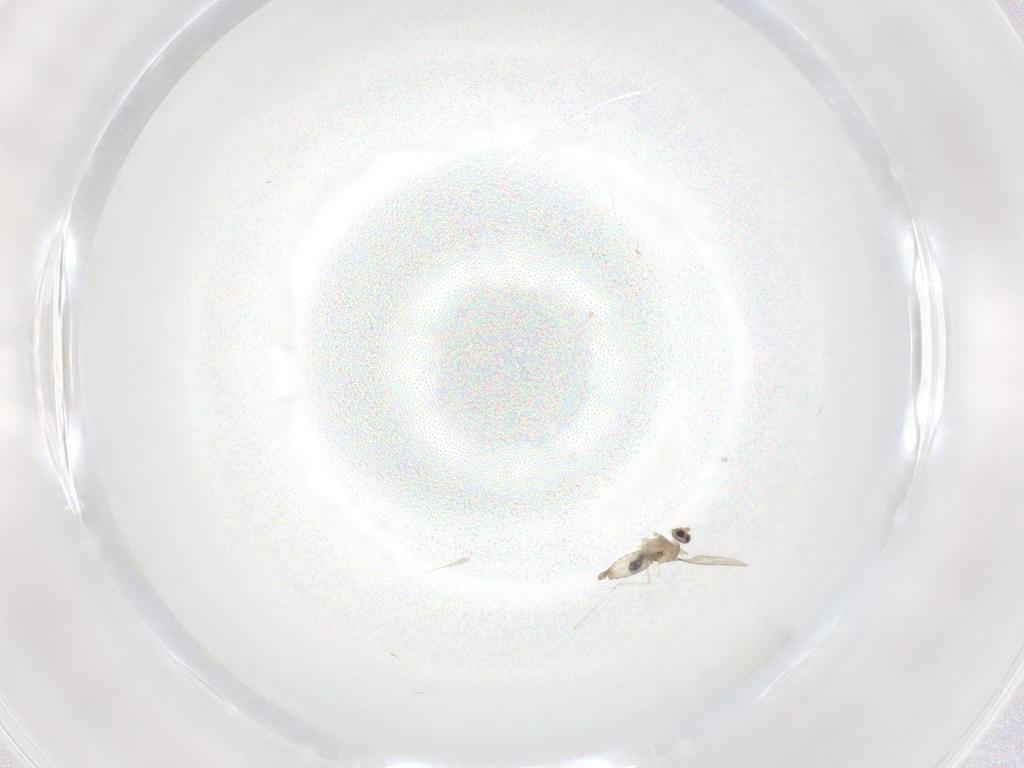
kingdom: Animalia
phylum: Arthropoda
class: Insecta
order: Diptera
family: Cecidomyiidae
